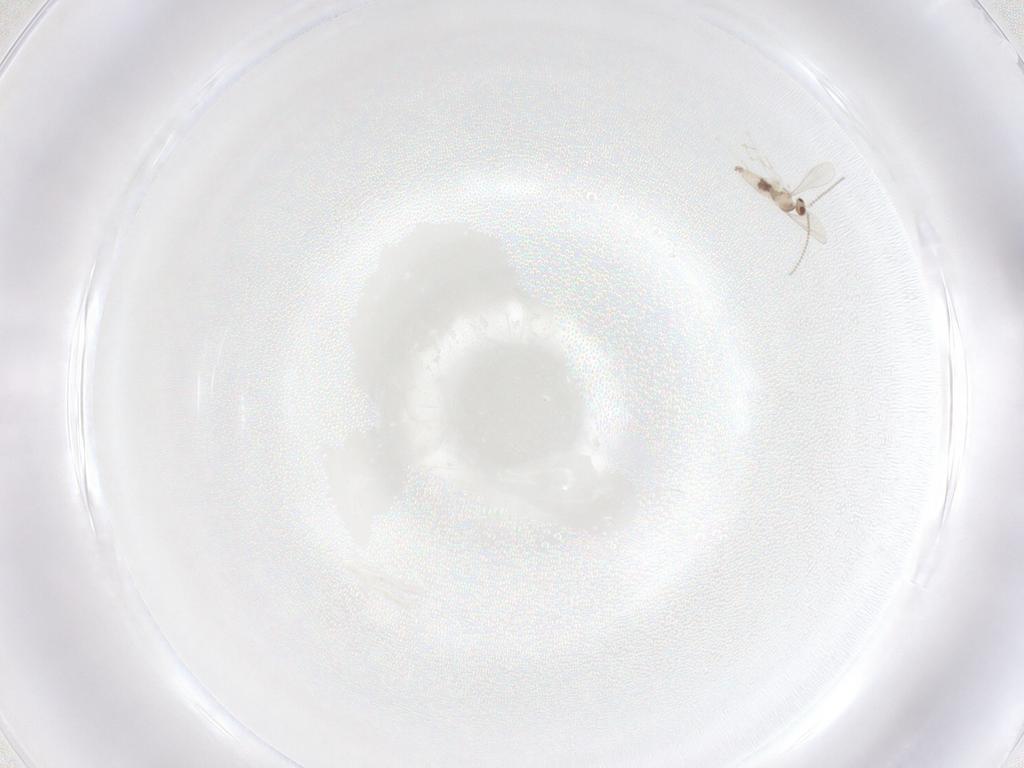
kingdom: Animalia
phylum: Arthropoda
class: Insecta
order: Diptera
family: Cecidomyiidae
